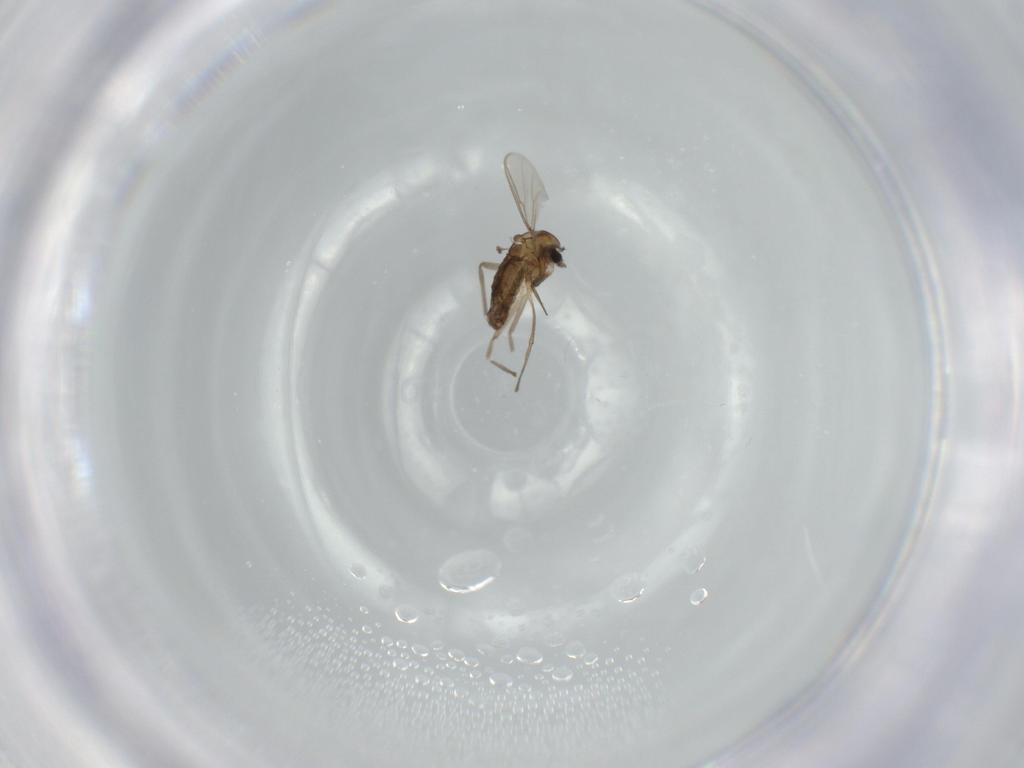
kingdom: Animalia
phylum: Arthropoda
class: Insecta
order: Diptera
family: Chironomidae
